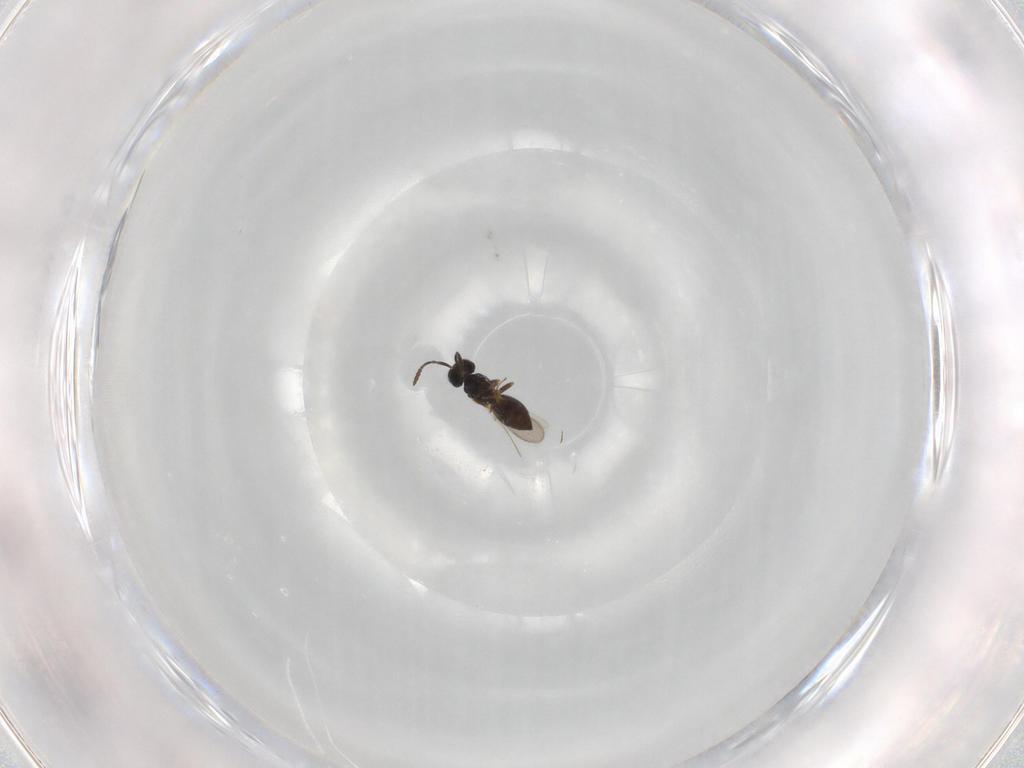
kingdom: Animalia
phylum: Arthropoda
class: Insecta
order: Hymenoptera
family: Scelionidae
